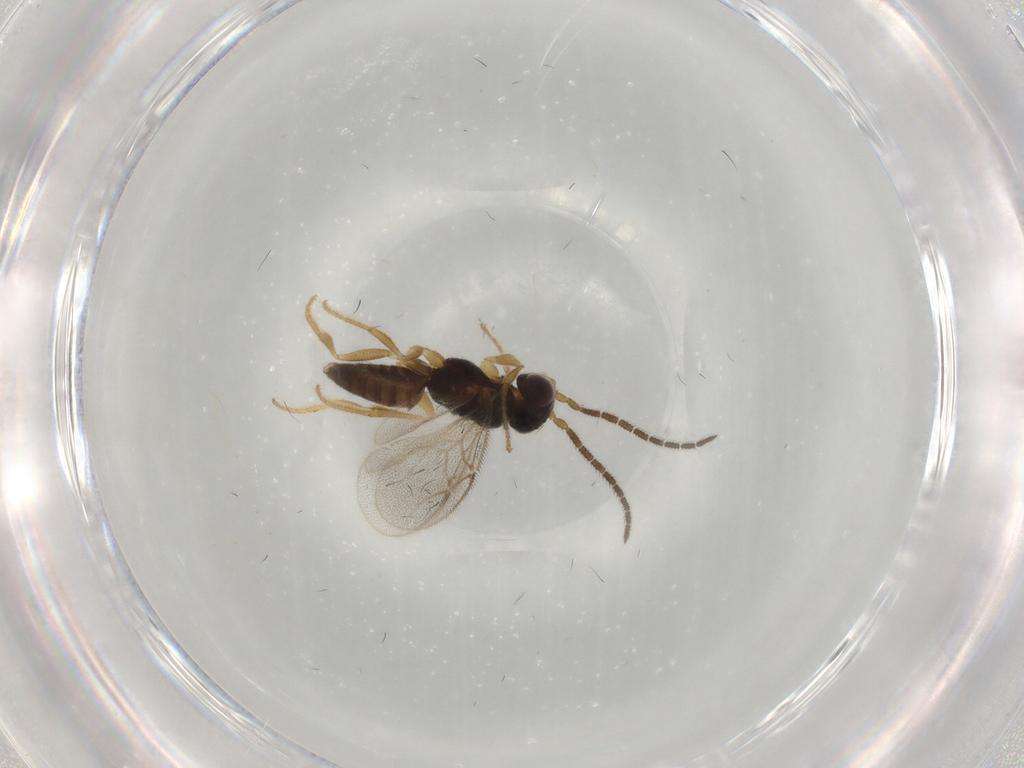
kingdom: Animalia
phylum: Arthropoda
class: Insecta
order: Hymenoptera
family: Dryinidae
